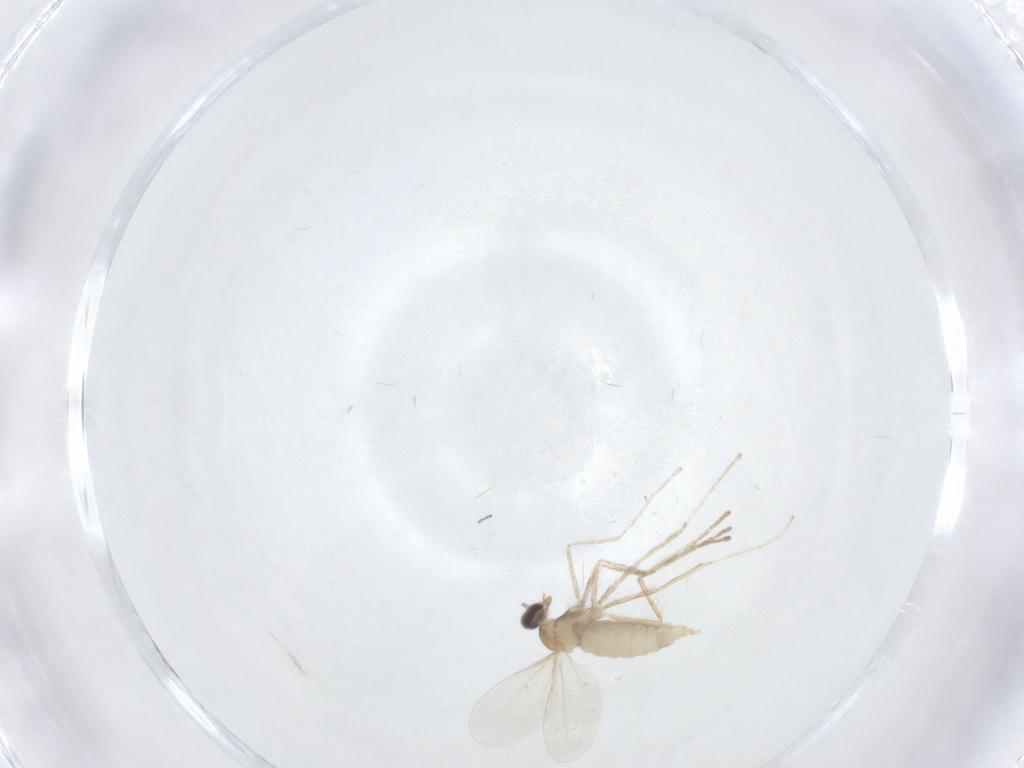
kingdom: Animalia
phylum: Arthropoda
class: Insecta
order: Diptera
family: Cecidomyiidae
